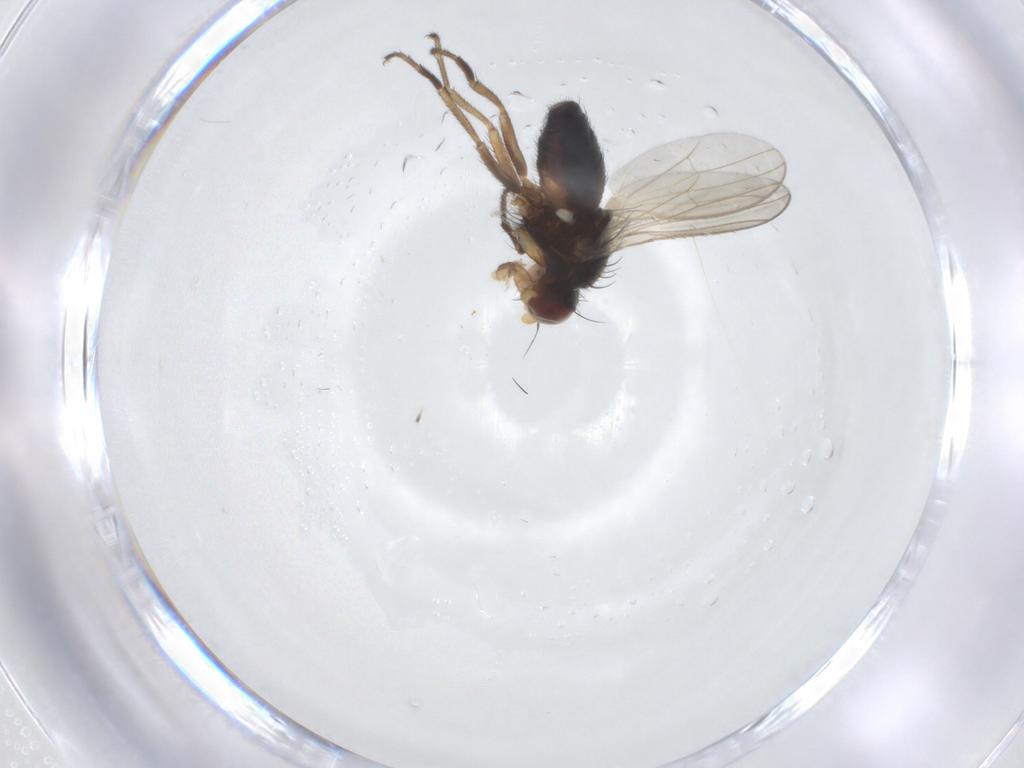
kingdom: Animalia
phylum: Arthropoda
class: Insecta
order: Diptera
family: Heleomyzidae
